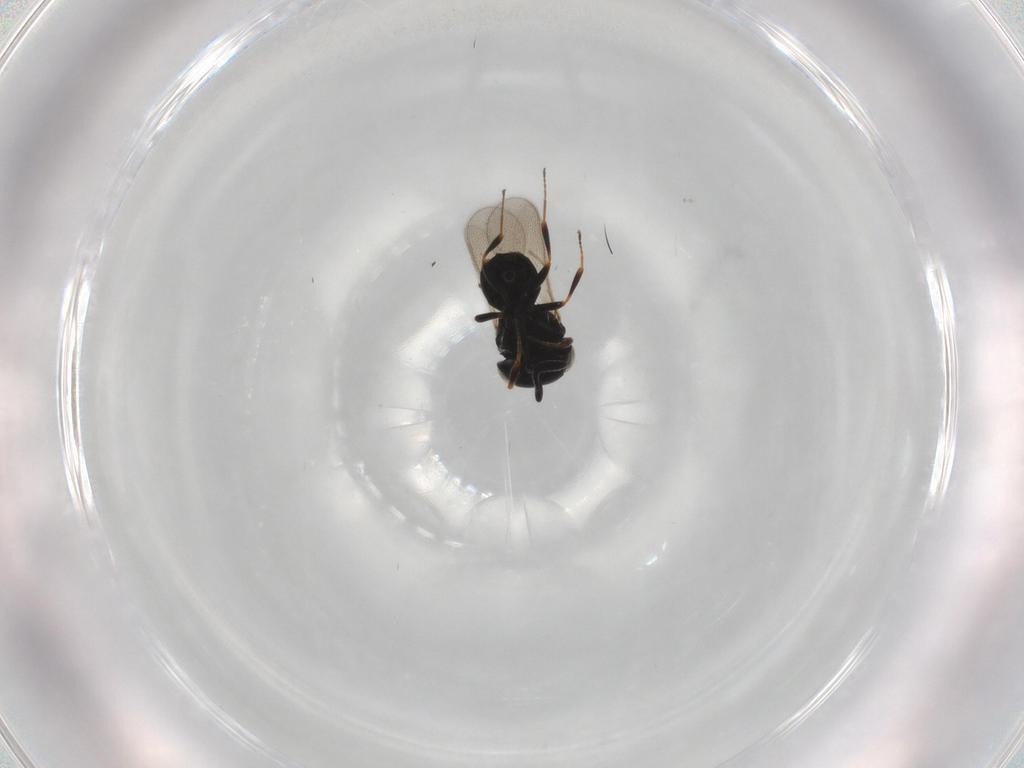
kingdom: Animalia
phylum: Arthropoda
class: Insecta
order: Hymenoptera
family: Scelionidae
